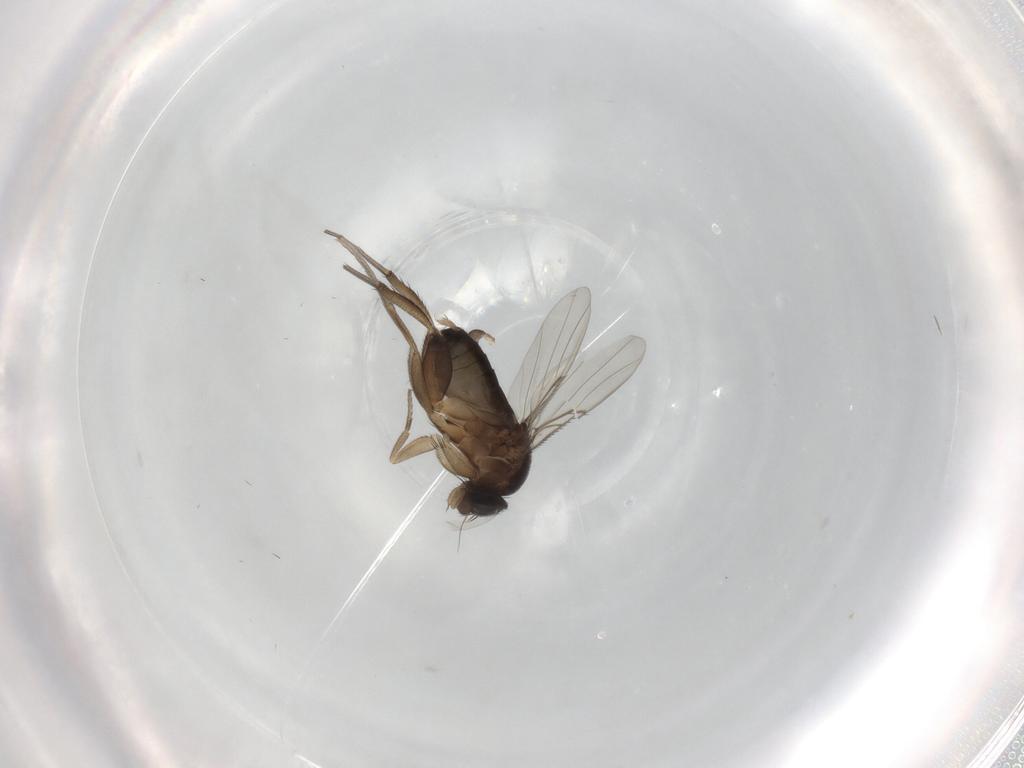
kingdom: Animalia
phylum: Arthropoda
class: Insecta
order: Diptera
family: Phoridae
